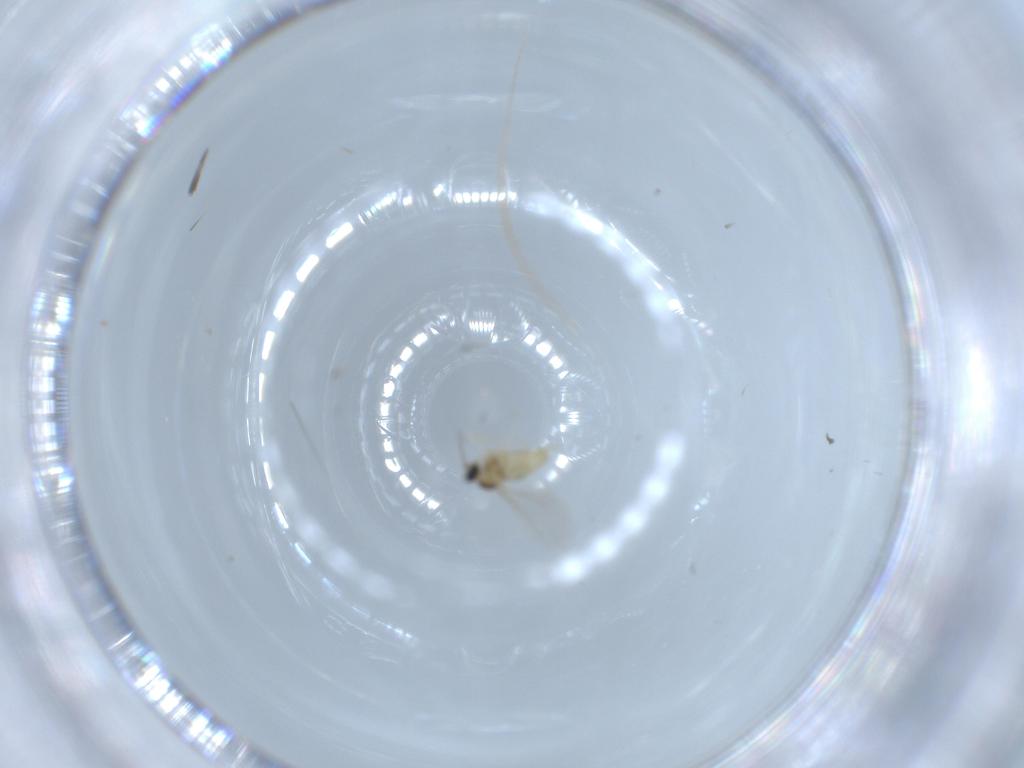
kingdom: Animalia
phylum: Arthropoda
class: Insecta
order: Diptera
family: Cecidomyiidae
